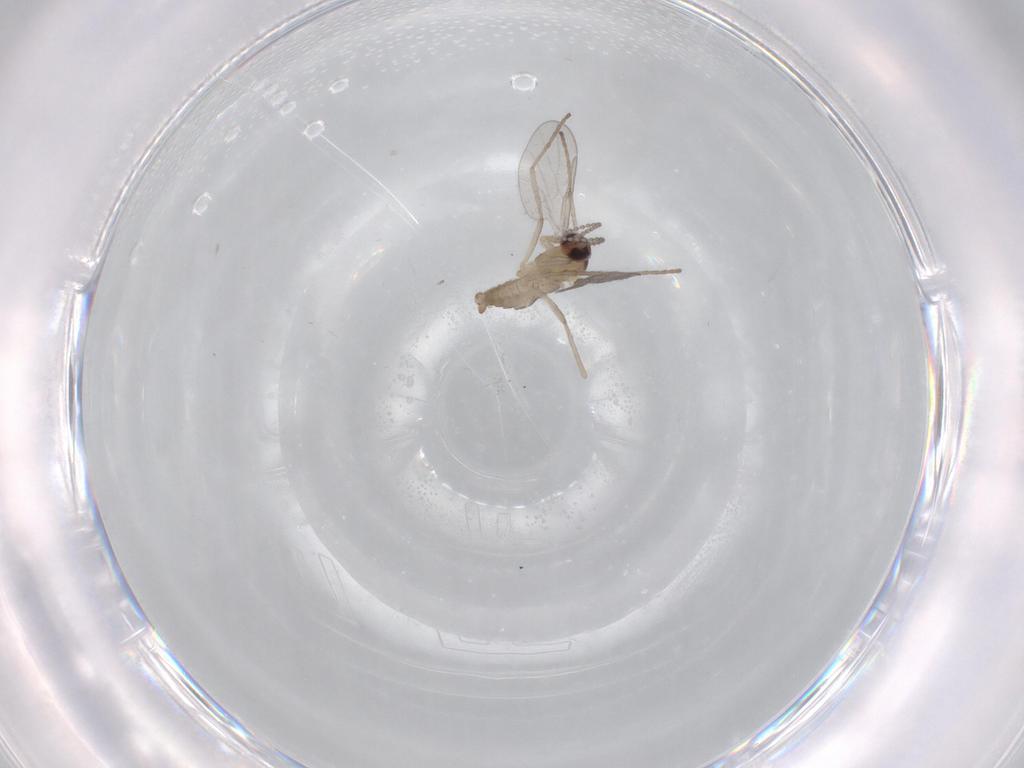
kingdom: Animalia
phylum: Arthropoda
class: Insecta
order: Diptera
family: Cecidomyiidae
